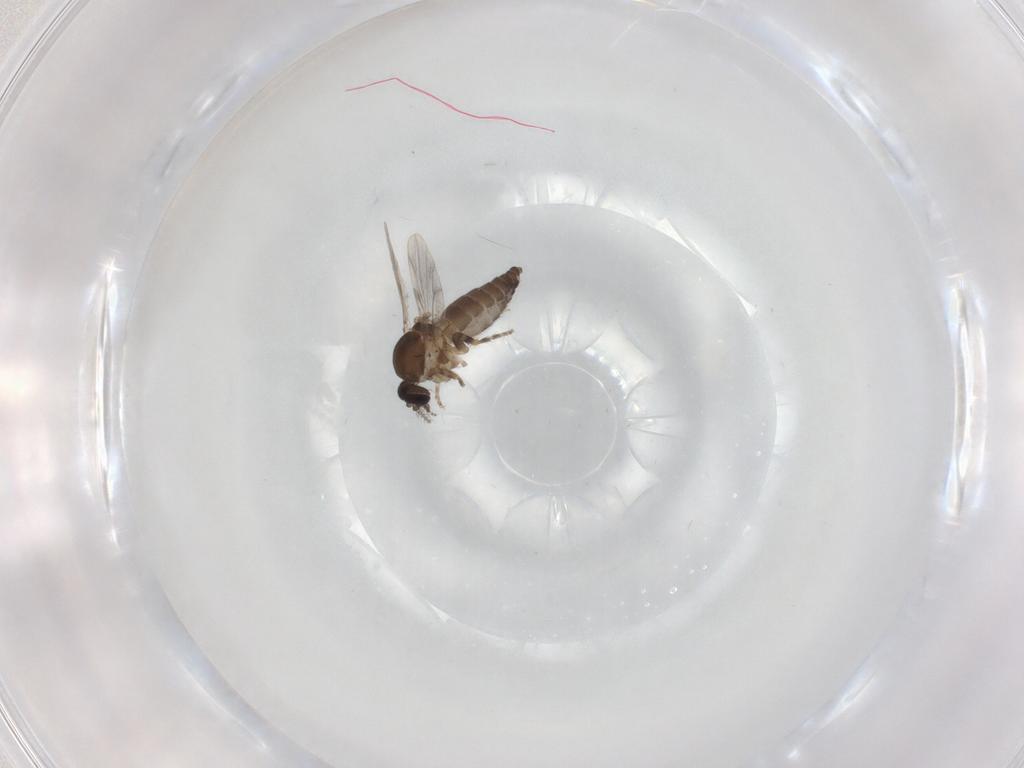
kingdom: Animalia
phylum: Arthropoda
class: Insecta
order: Diptera
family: Ceratopogonidae
